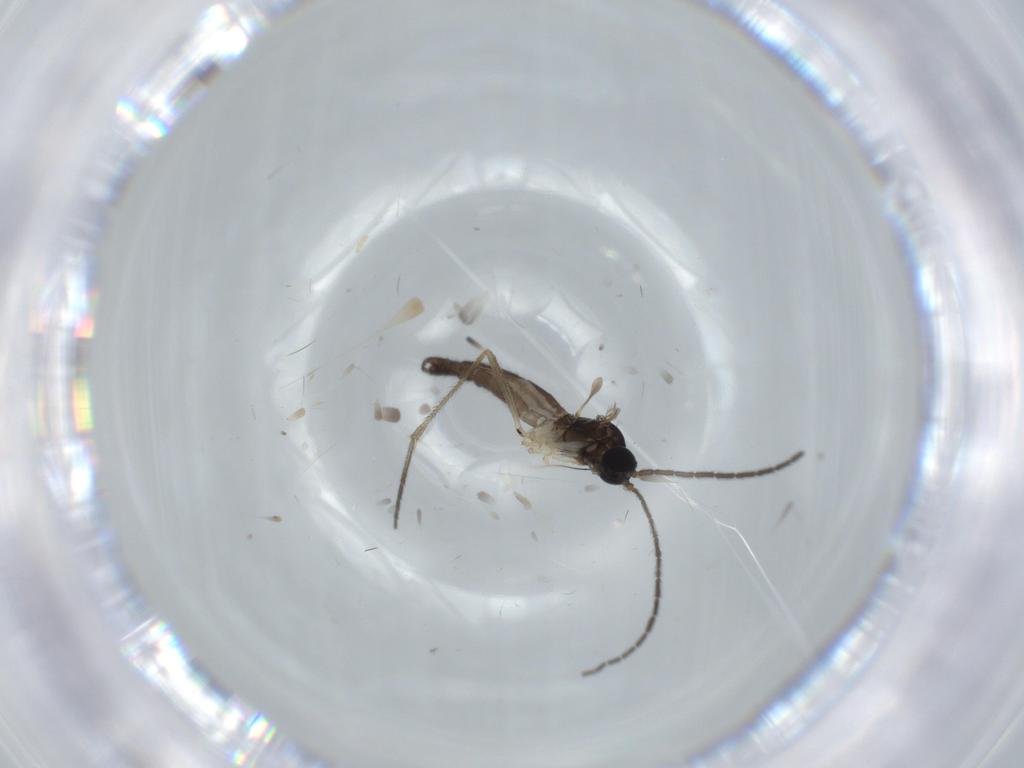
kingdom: Animalia
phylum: Arthropoda
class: Insecta
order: Diptera
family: Sciaridae
